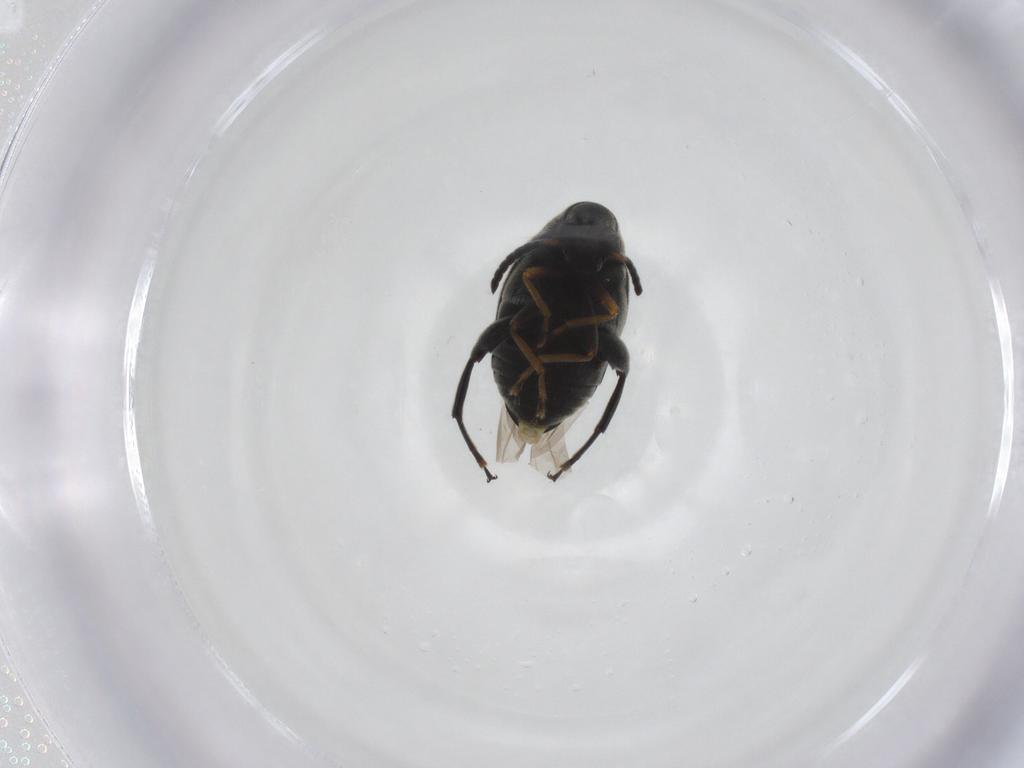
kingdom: Animalia
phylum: Arthropoda
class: Insecta
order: Coleoptera
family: Chrysomelidae
